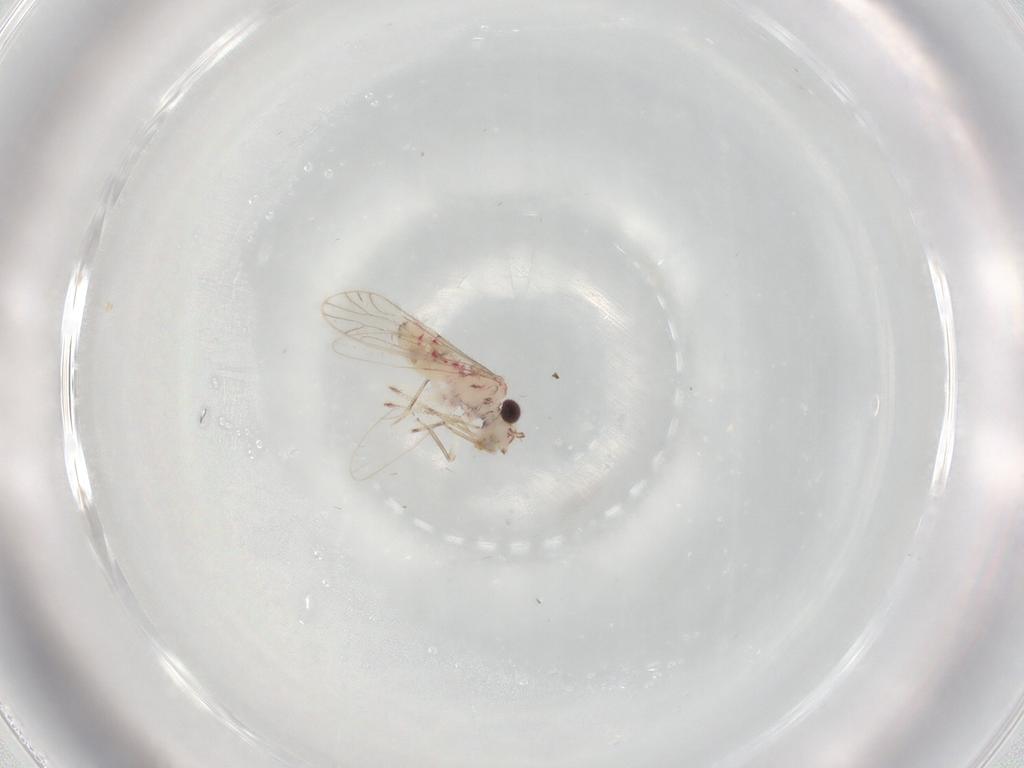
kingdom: Animalia
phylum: Arthropoda
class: Insecta
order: Psocodea
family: Caeciliusidae
